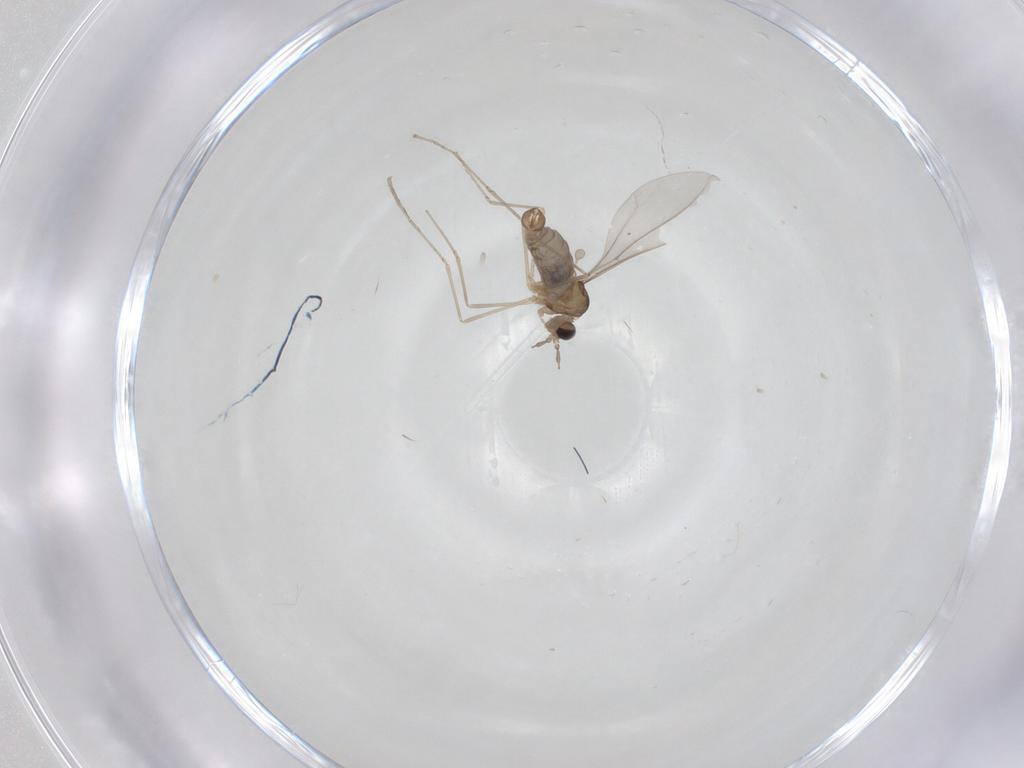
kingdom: Animalia
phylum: Arthropoda
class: Insecta
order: Diptera
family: Cecidomyiidae
